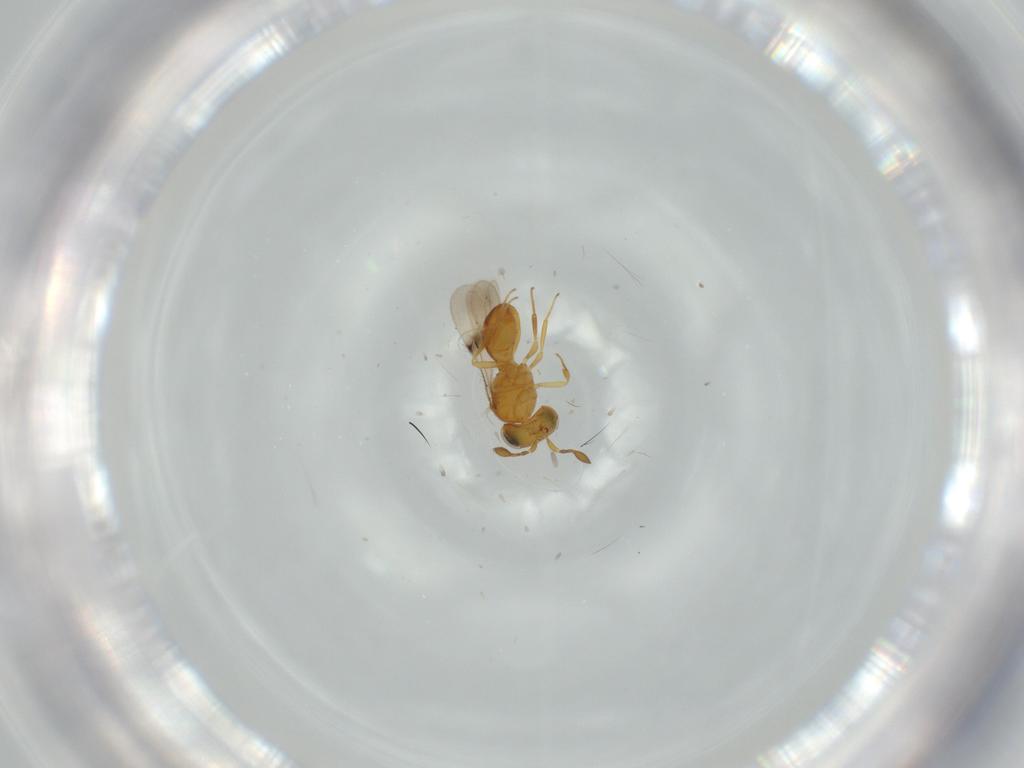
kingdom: Animalia
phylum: Arthropoda
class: Insecta
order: Hymenoptera
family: Scelionidae
